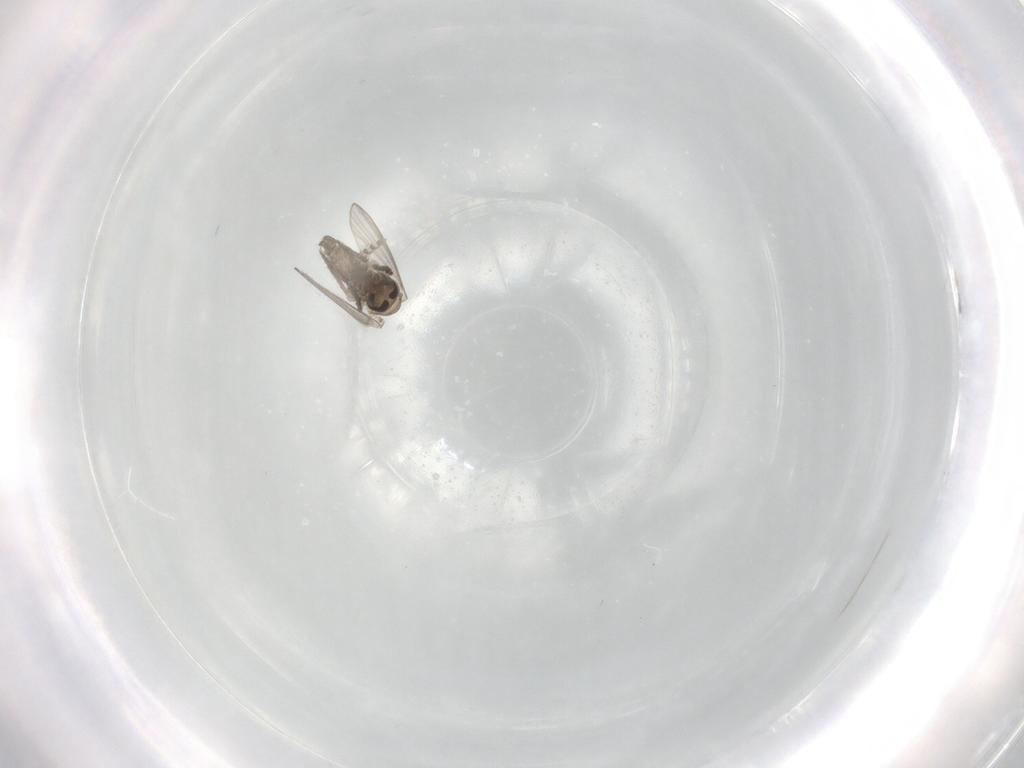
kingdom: Animalia
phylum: Arthropoda
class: Insecta
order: Diptera
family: Psychodidae
